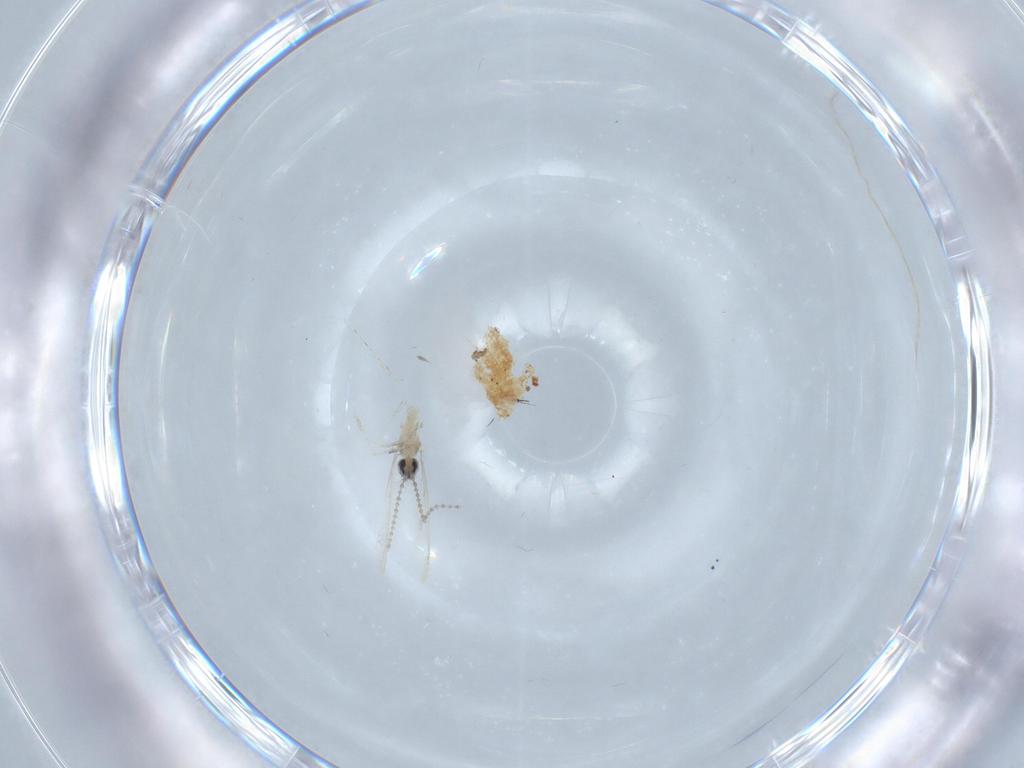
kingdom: Animalia
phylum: Arthropoda
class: Insecta
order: Diptera
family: Cecidomyiidae
